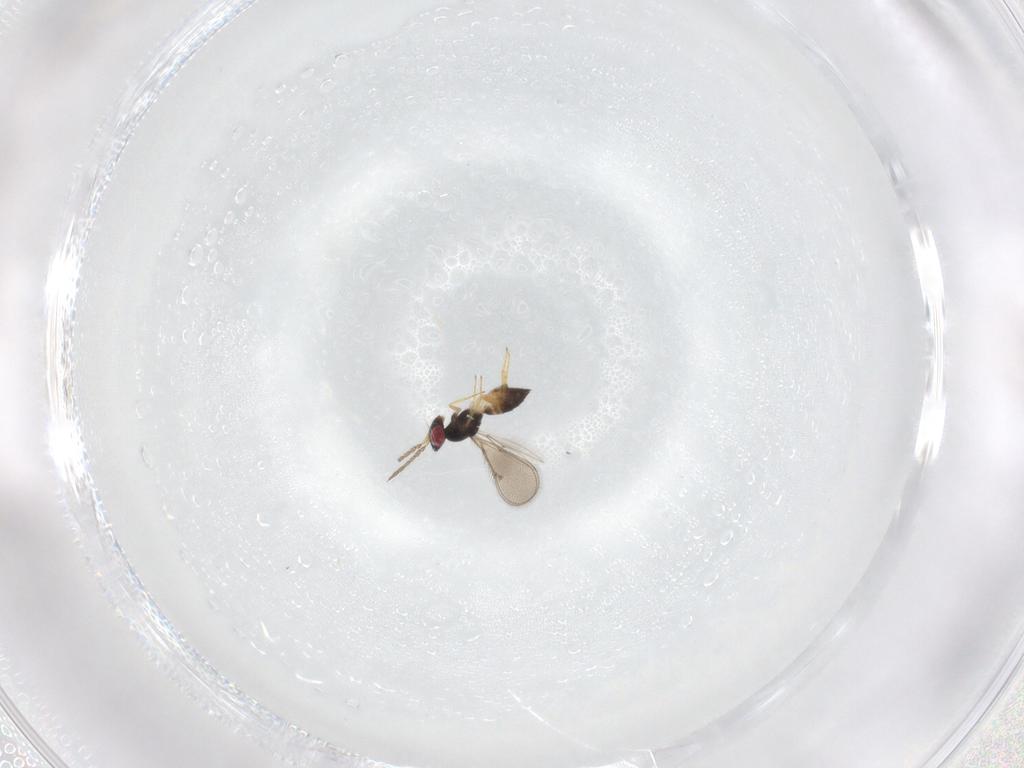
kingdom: Animalia
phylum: Arthropoda
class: Insecta
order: Hymenoptera
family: Eulophidae
